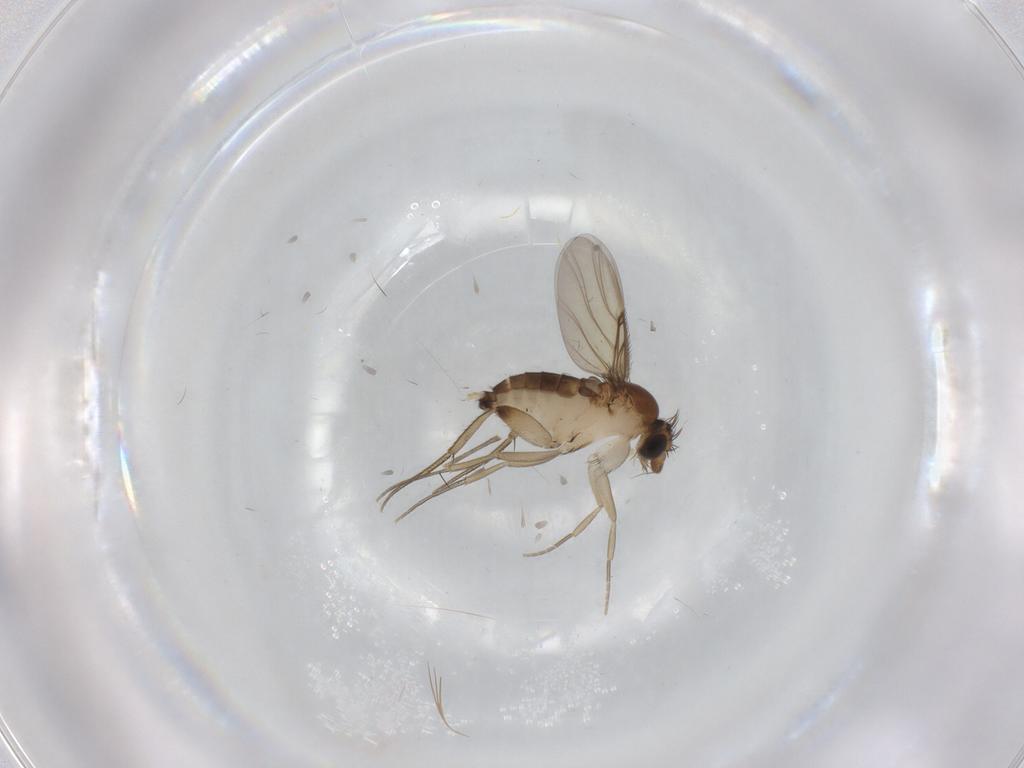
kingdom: Animalia
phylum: Arthropoda
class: Insecta
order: Diptera
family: Phoridae
